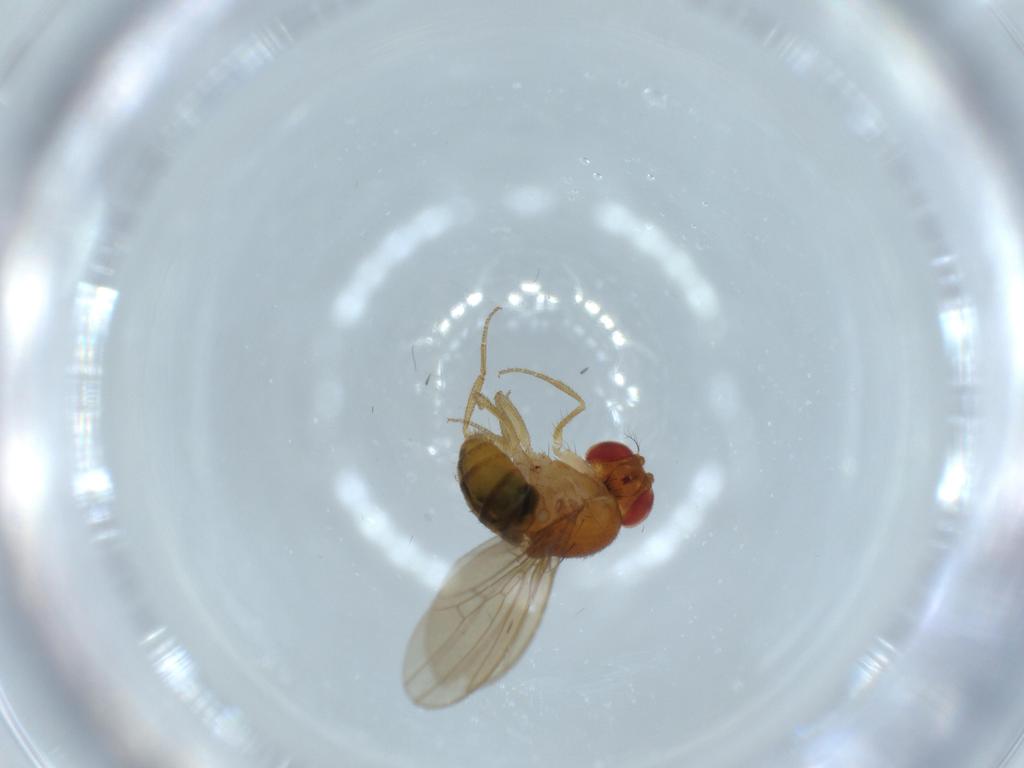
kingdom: Animalia
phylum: Arthropoda
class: Insecta
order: Diptera
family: Drosophilidae
